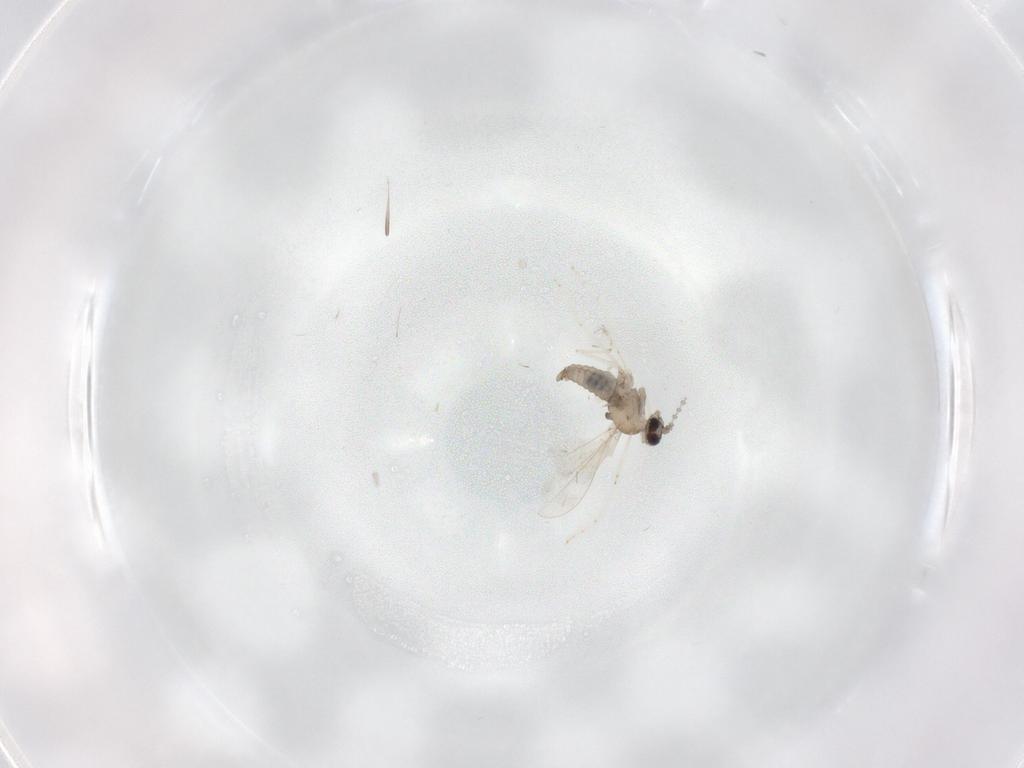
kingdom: Animalia
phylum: Arthropoda
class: Insecta
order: Diptera
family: Cecidomyiidae
